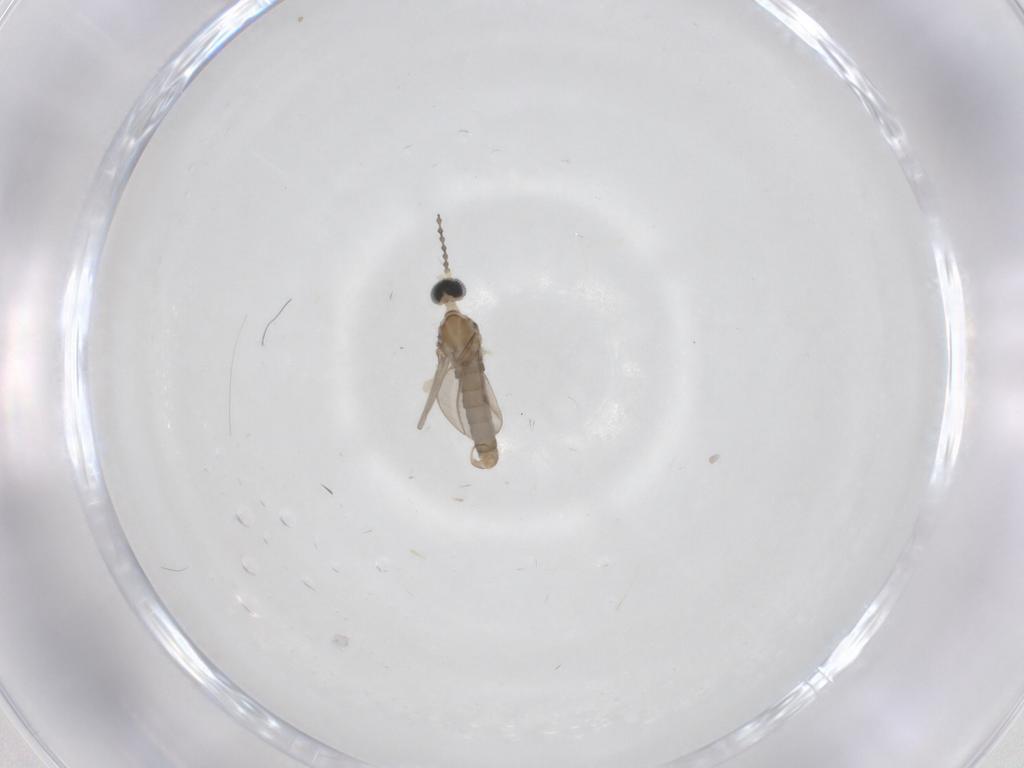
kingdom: Animalia
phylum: Arthropoda
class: Insecta
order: Diptera
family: Cecidomyiidae
